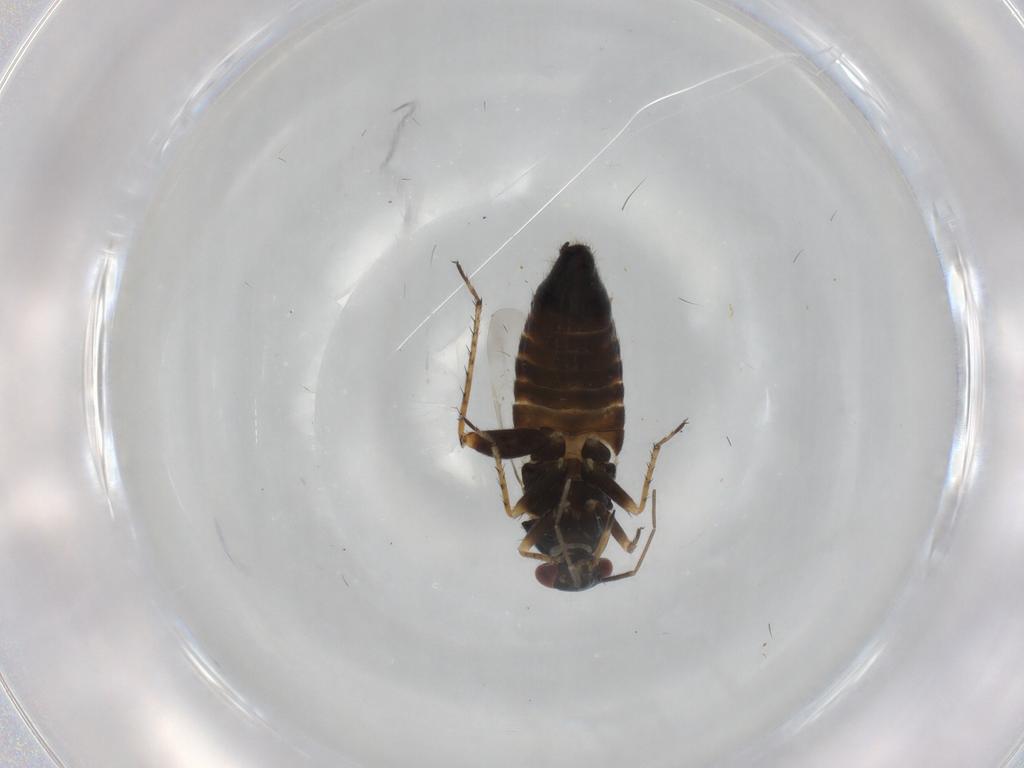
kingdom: Animalia
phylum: Arthropoda
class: Insecta
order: Hemiptera
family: Miridae
